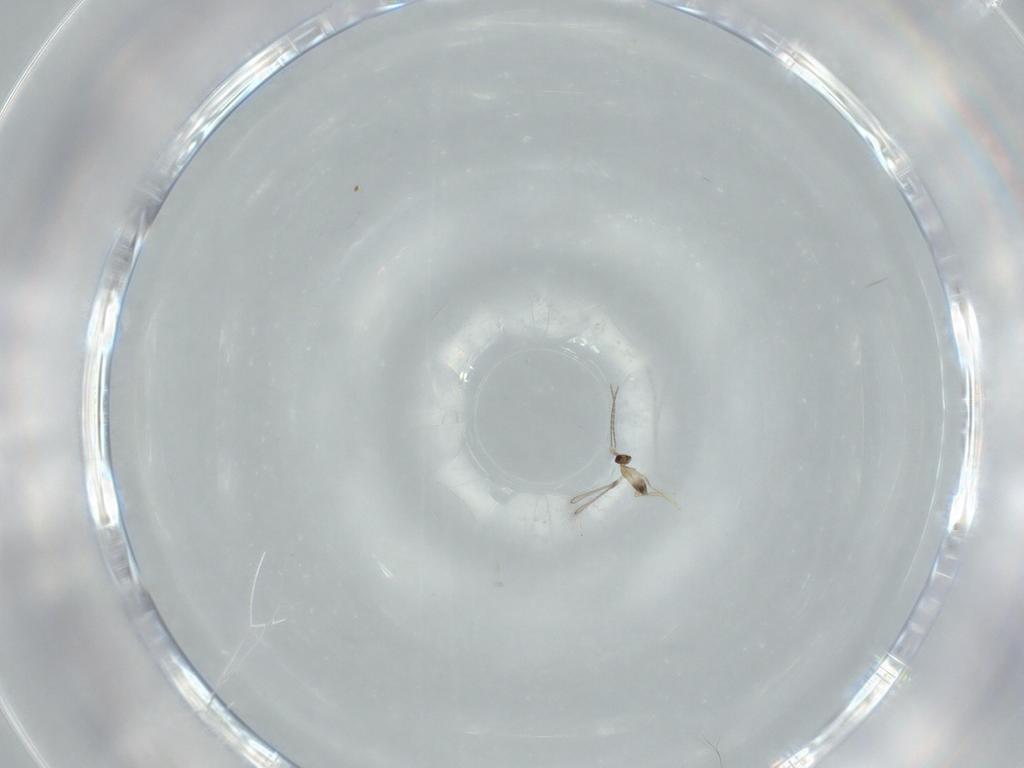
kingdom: Animalia
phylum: Arthropoda
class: Insecta
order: Hymenoptera
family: Mymaridae
